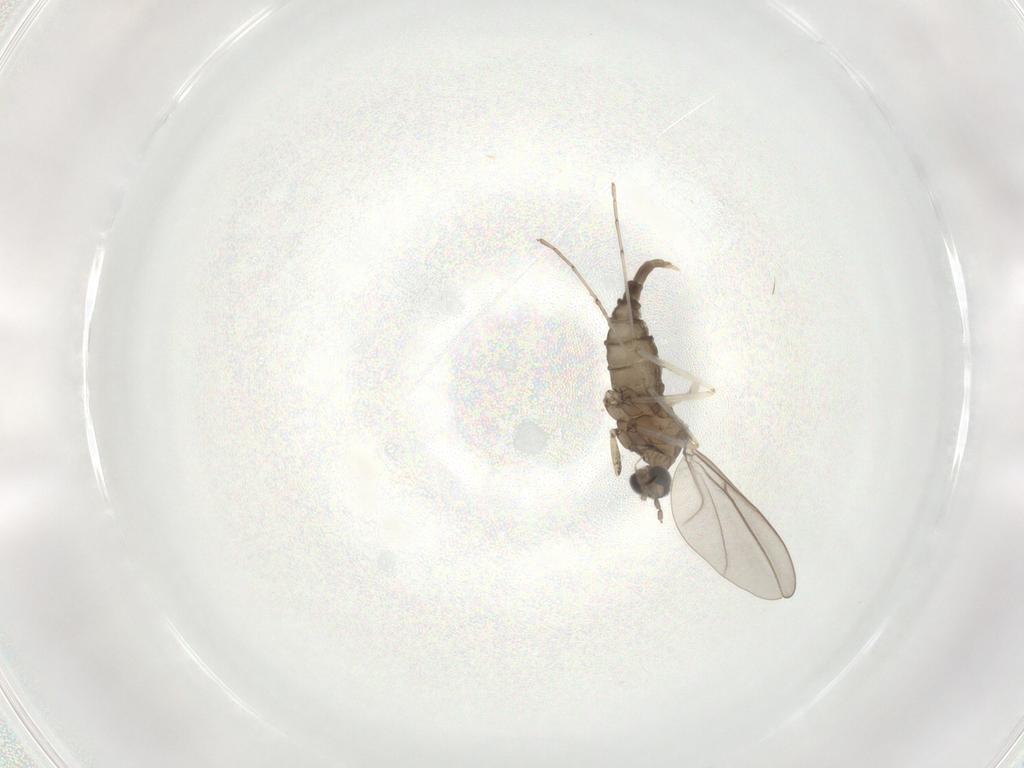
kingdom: Animalia
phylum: Arthropoda
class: Insecta
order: Diptera
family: Cecidomyiidae
